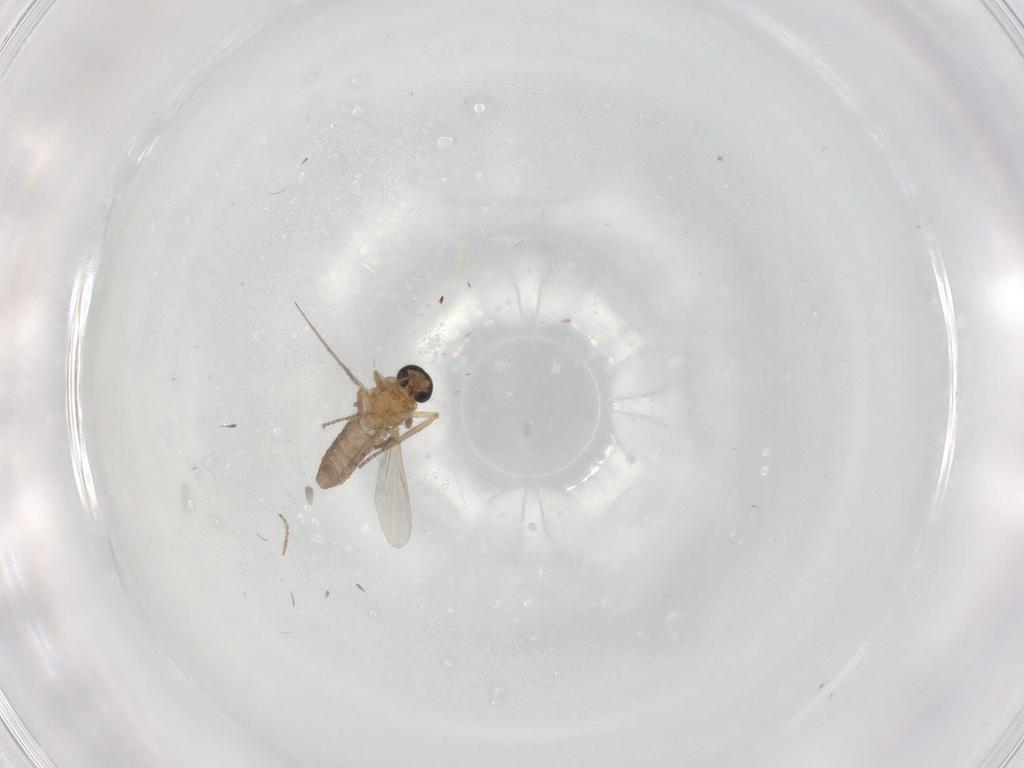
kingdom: Animalia
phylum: Arthropoda
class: Insecta
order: Diptera
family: Ceratopogonidae
